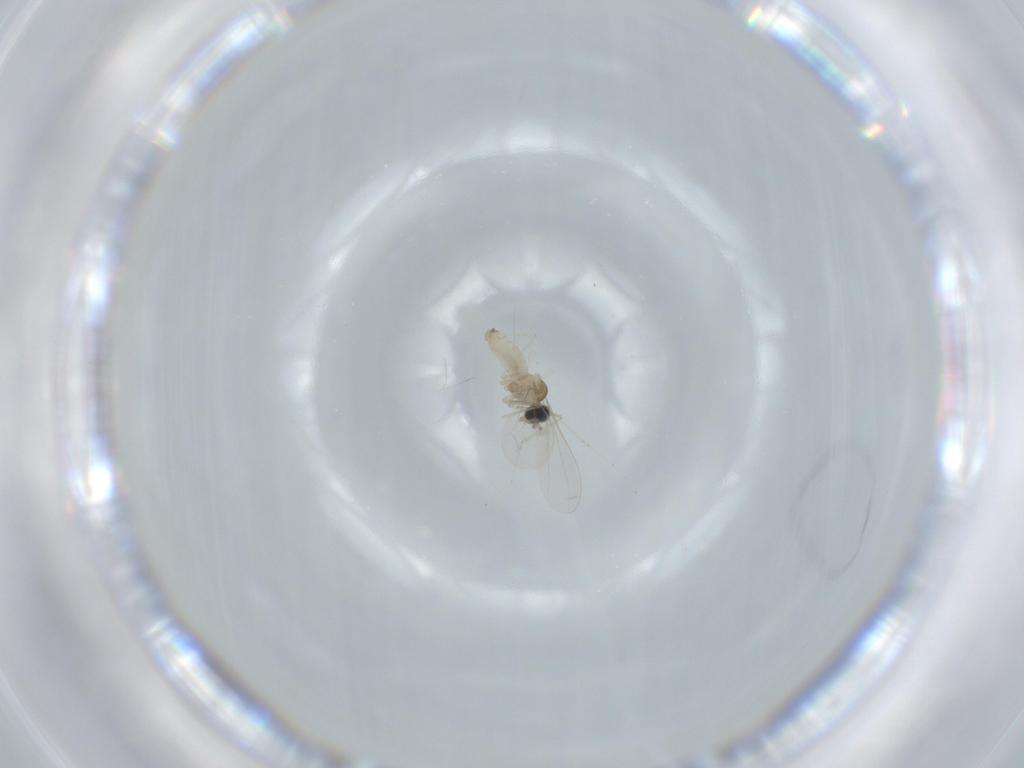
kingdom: Animalia
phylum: Arthropoda
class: Insecta
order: Diptera
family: Cecidomyiidae
